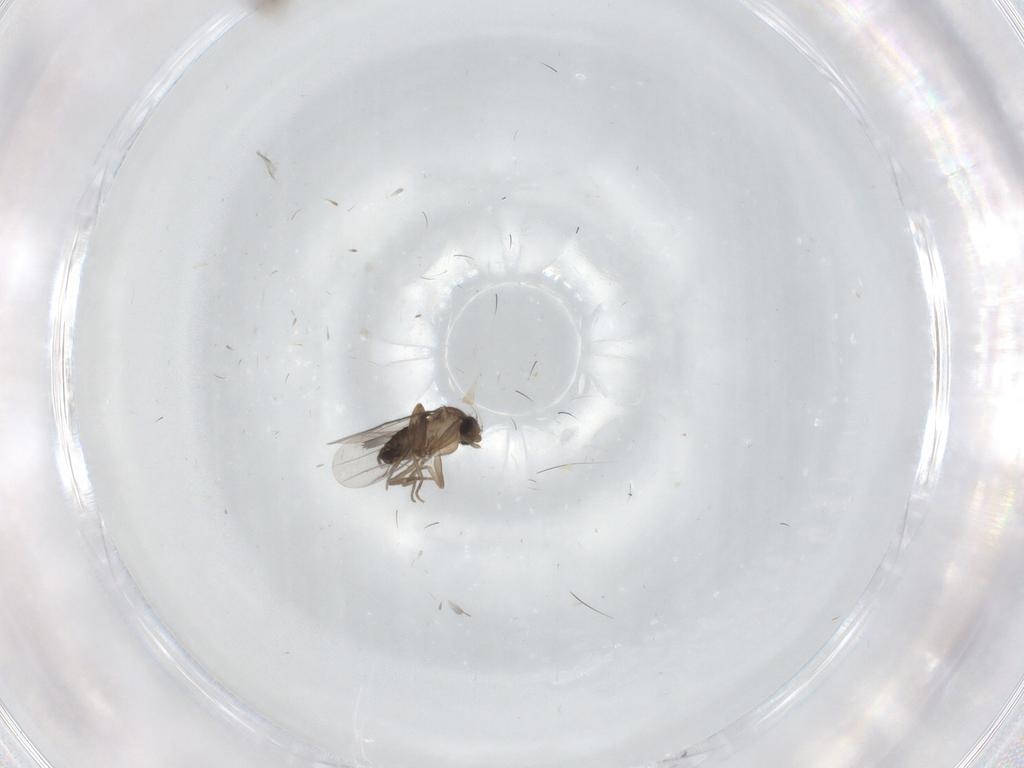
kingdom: Animalia
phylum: Arthropoda
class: Insecta
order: Diptera
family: Phoridae
